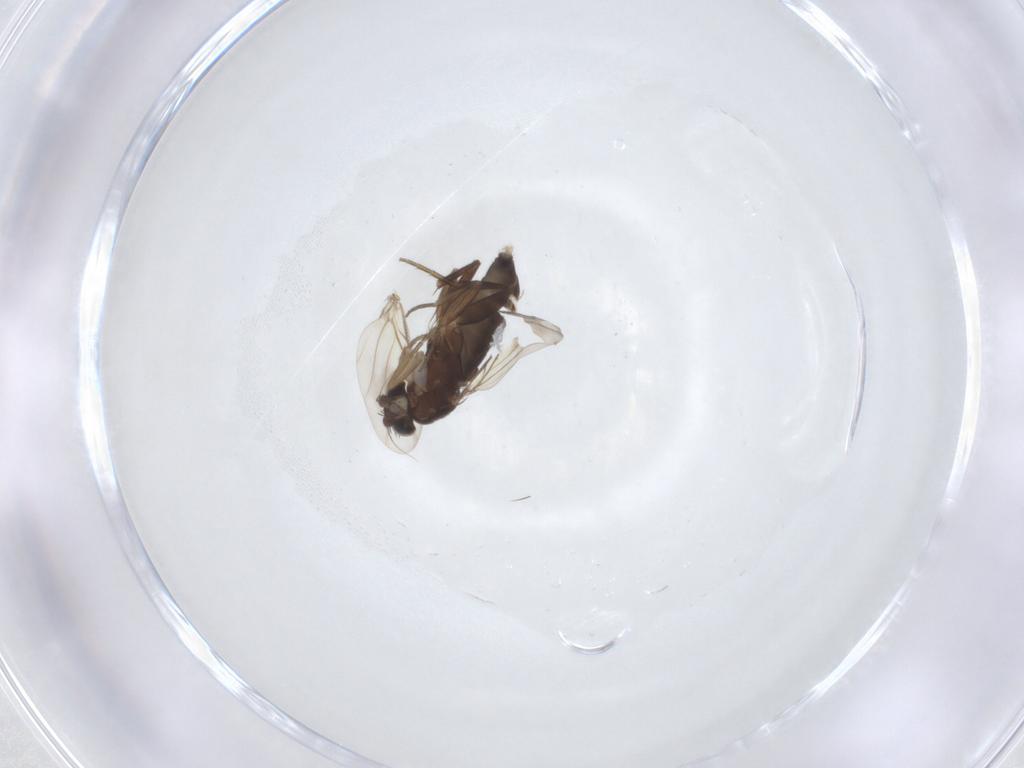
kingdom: Animalia
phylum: Arthropoda
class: Insecta
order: Diptera
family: Phoridae
